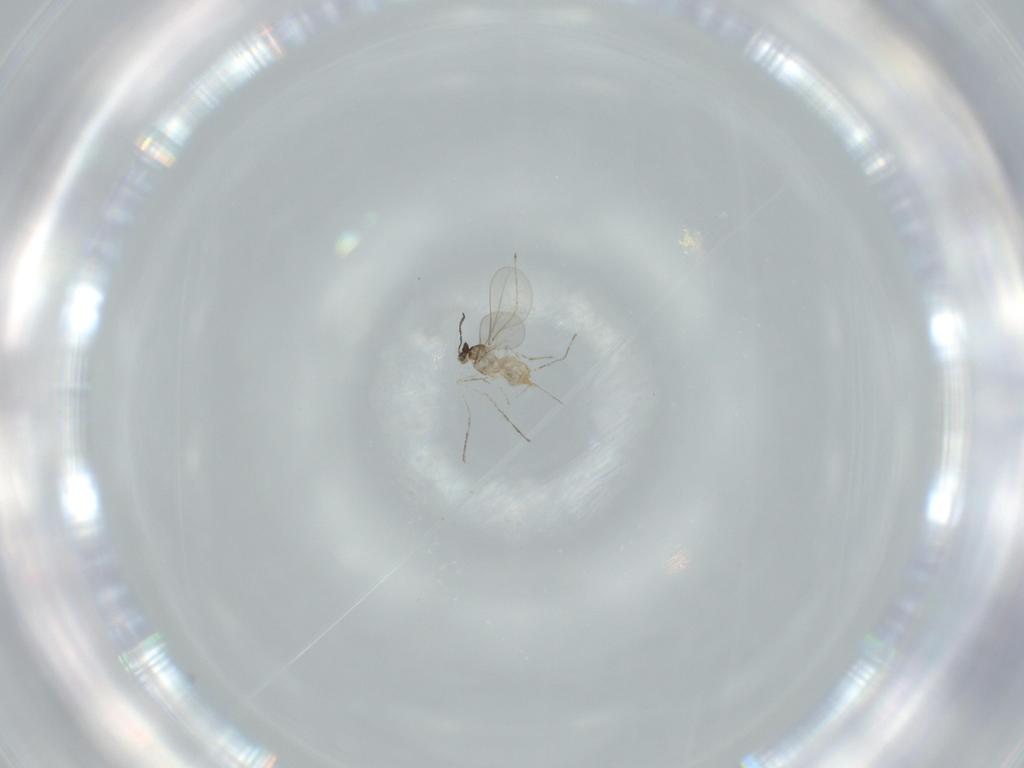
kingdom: Animalia
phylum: Arthropoda
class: Insecta
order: Diptera
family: Cecidomyiidae
